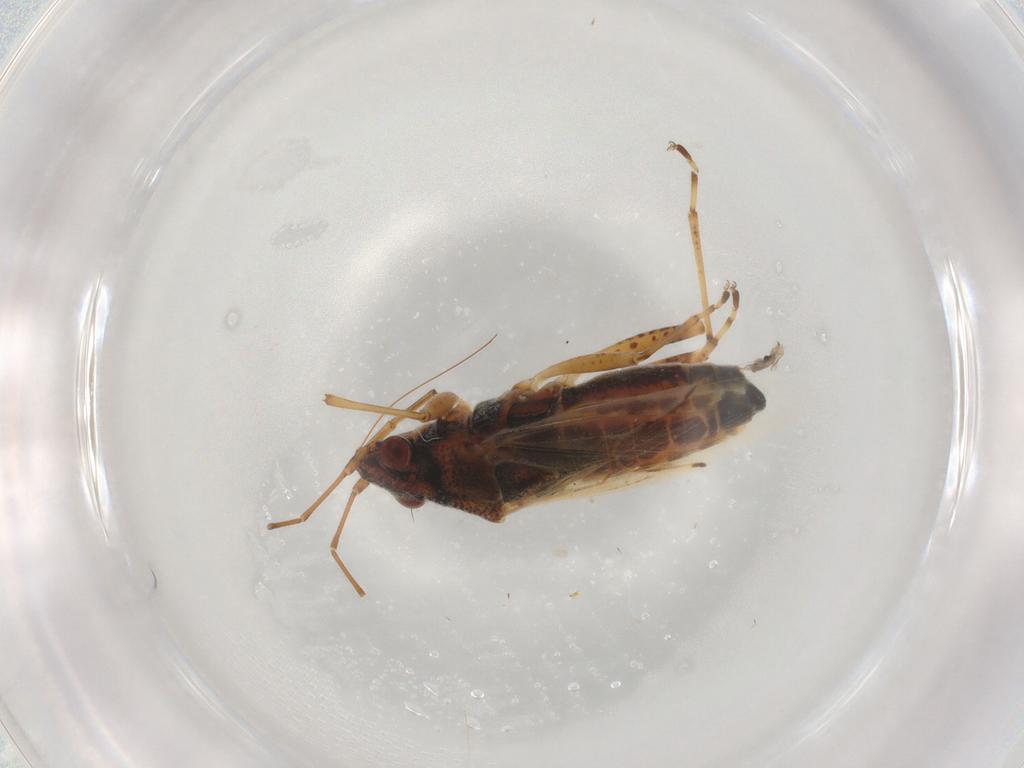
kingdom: Animalia
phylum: Arthropoda
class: Insecta
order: Hemiptera
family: Lygaeidae
